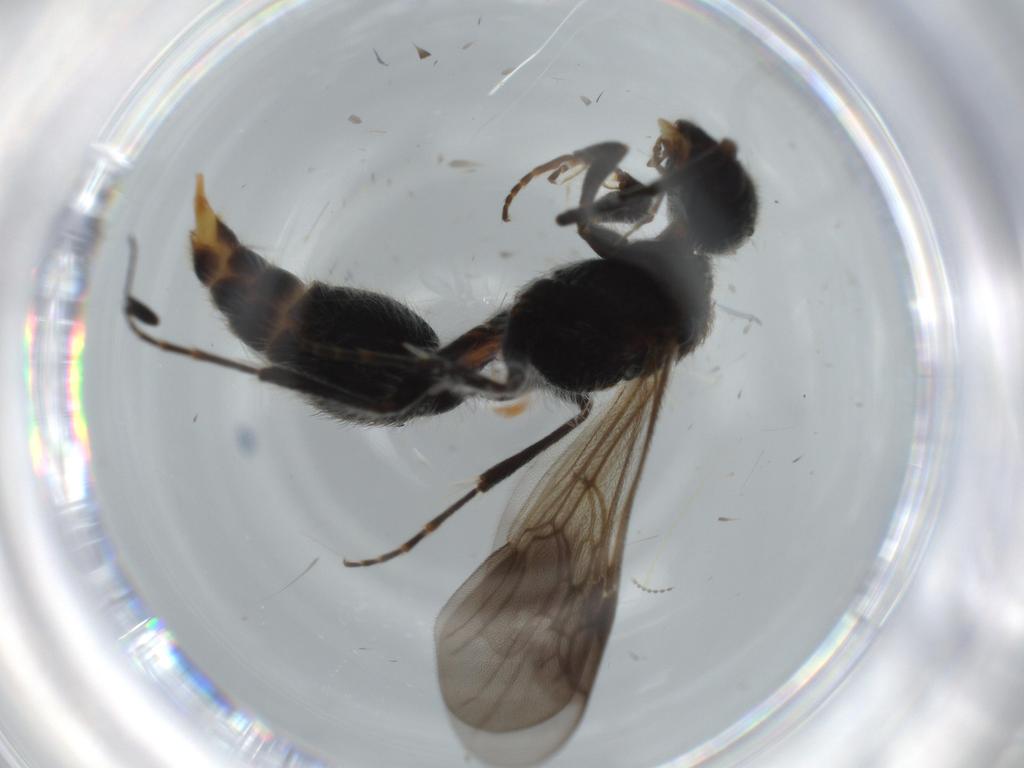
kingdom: Animalia
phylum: Arthropoda
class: Insecta
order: Hymenoptera
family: Mutillidae
